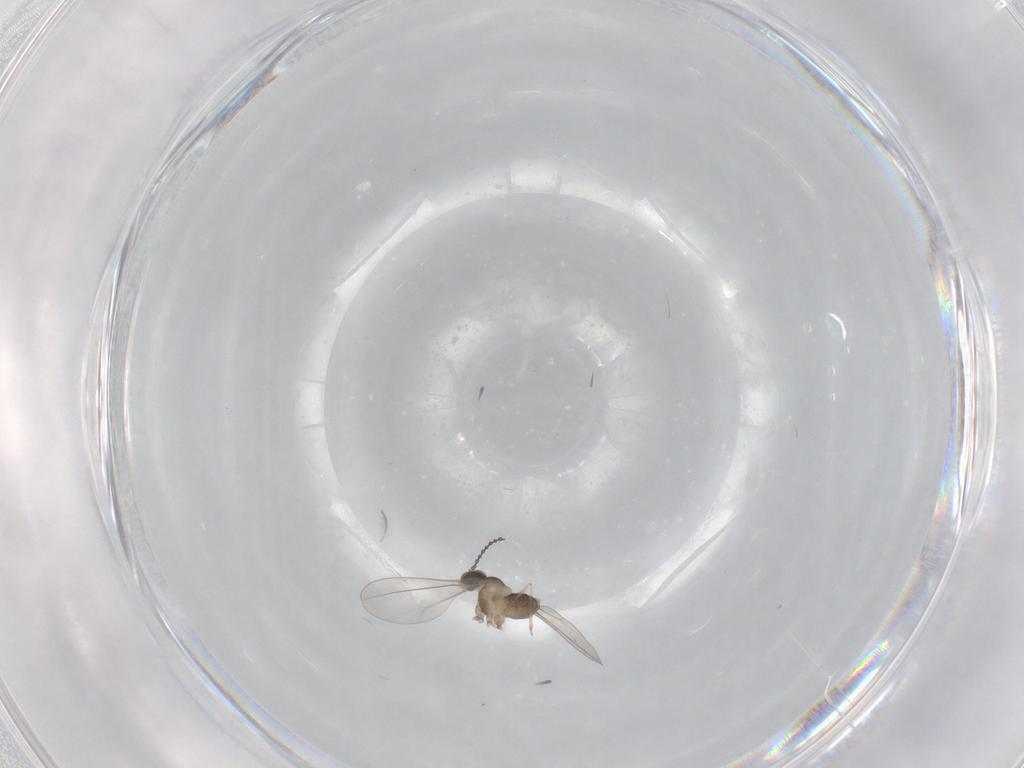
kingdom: Animalia
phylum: Arthropoda
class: Insecta
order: Diptera
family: Cecidomyiidae
